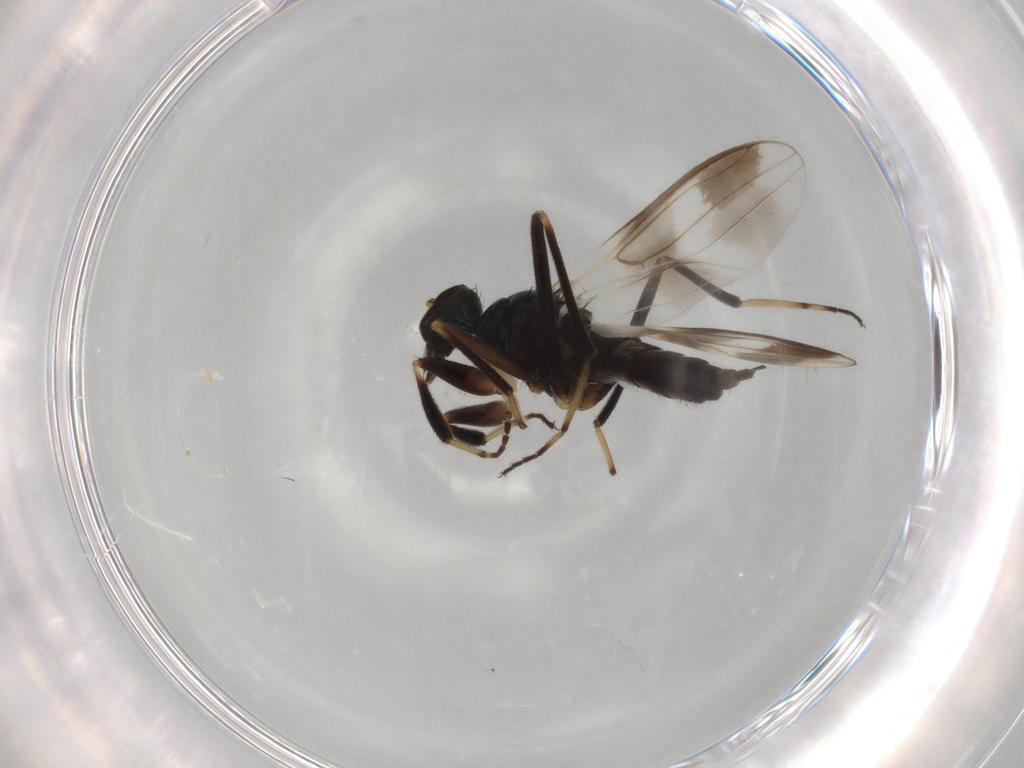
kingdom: Animalia
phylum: Arthropoda
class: Insecta
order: Diptera
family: Hybotidae
